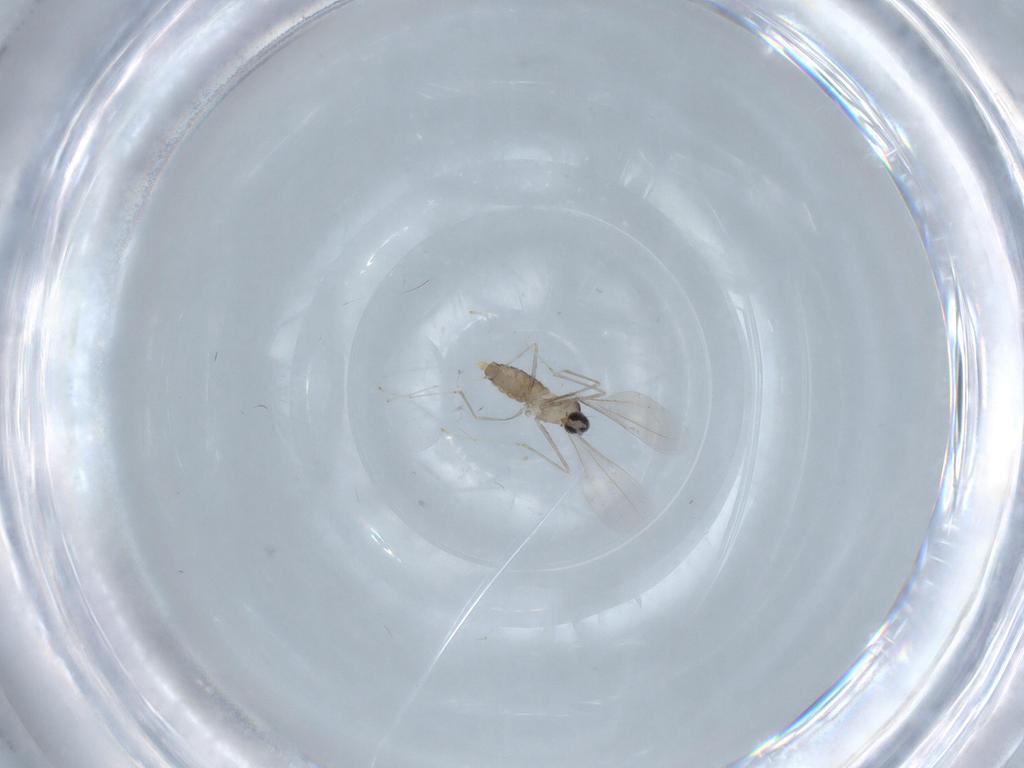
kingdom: Animalia
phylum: Arthropoda
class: Insecta
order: Diptera
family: Cecidomyiidae
